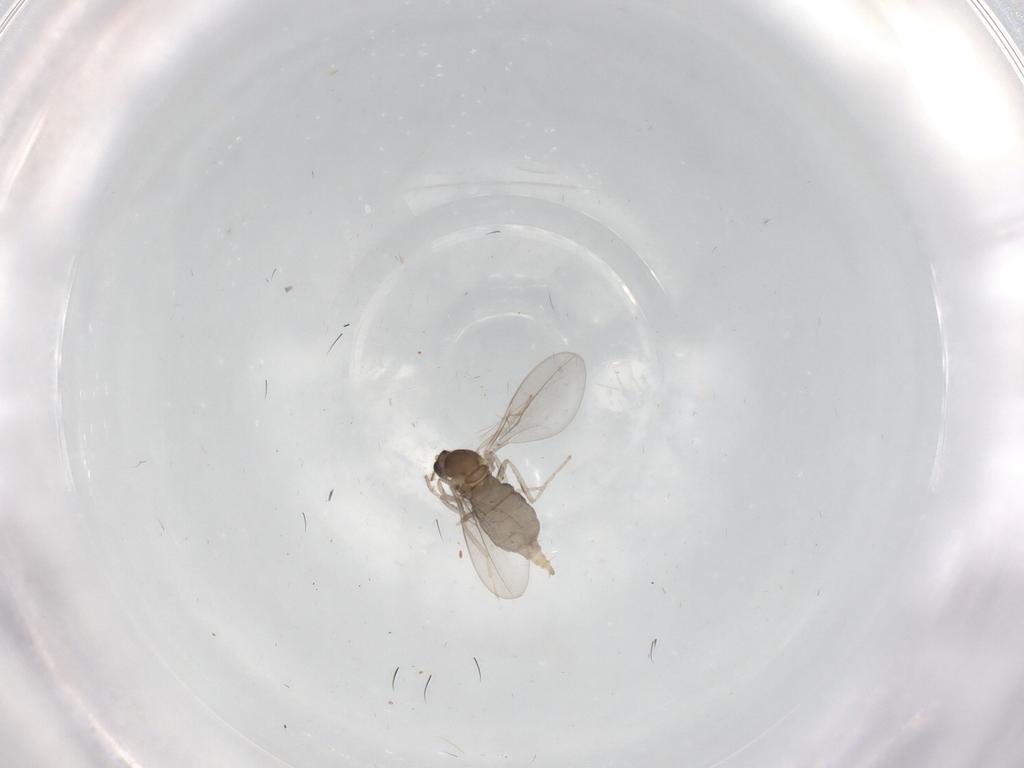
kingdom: Animalia
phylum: Arthropoda
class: Insecta
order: Diptera
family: Cecidomyiidae
